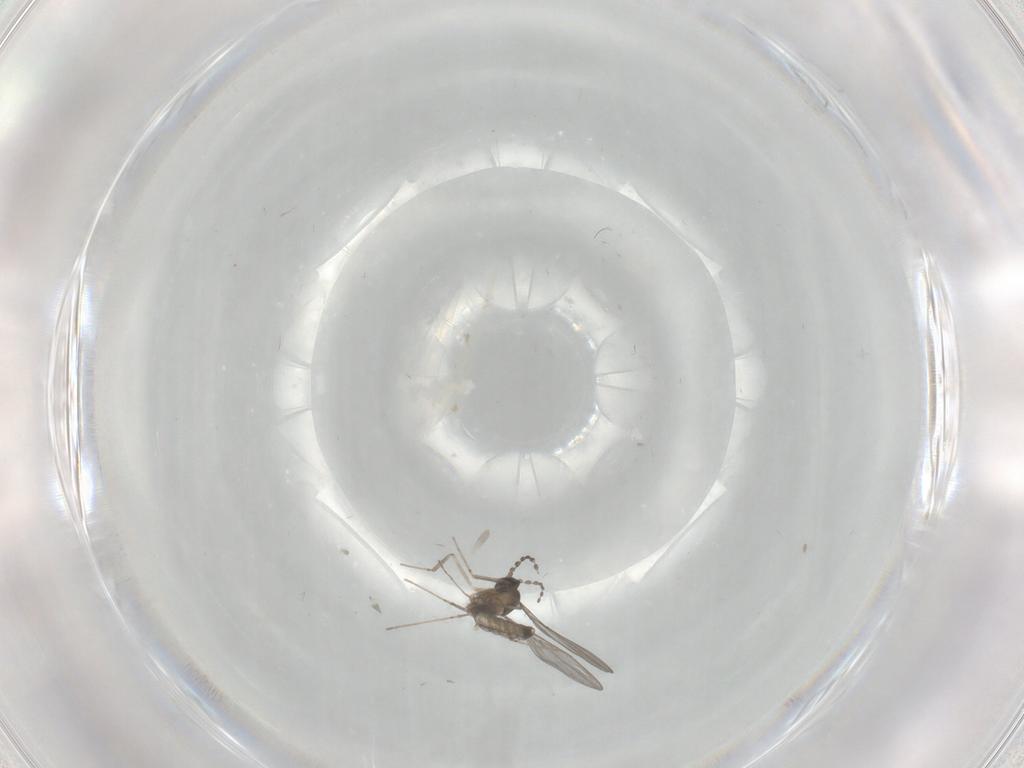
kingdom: Animalia
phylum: Arthropoda
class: Insecta
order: Diptera
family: Cecidomyiidae
